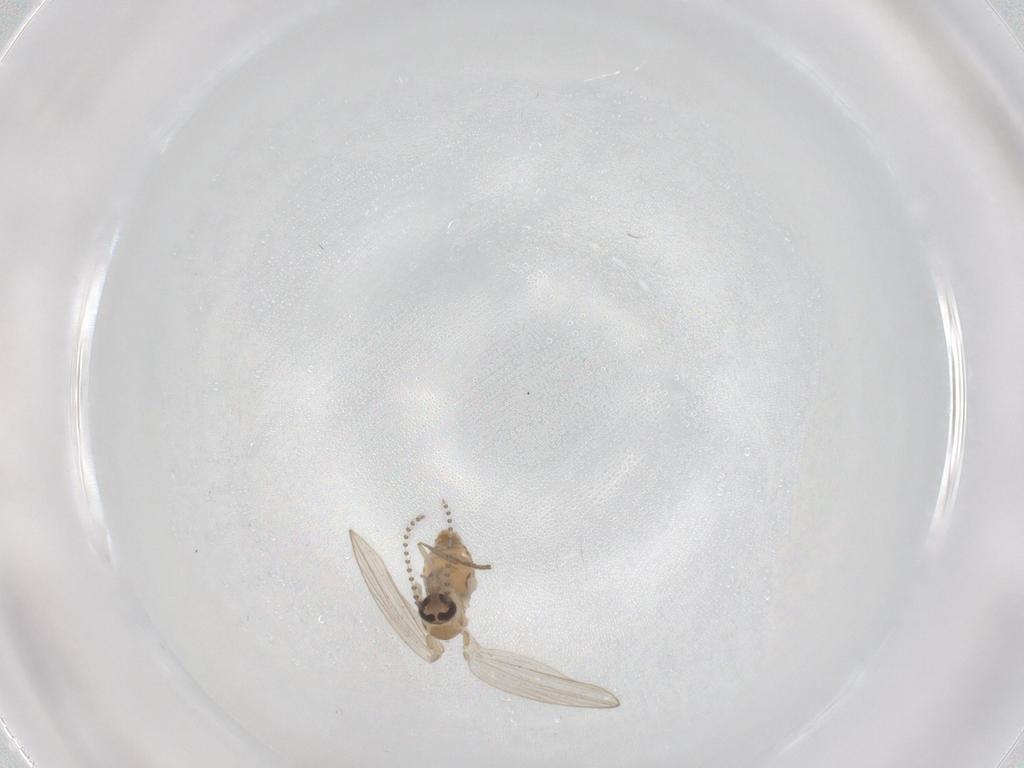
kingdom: Animalia
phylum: Arthropoda
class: Insecta
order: Diptera
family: Psychodidae
